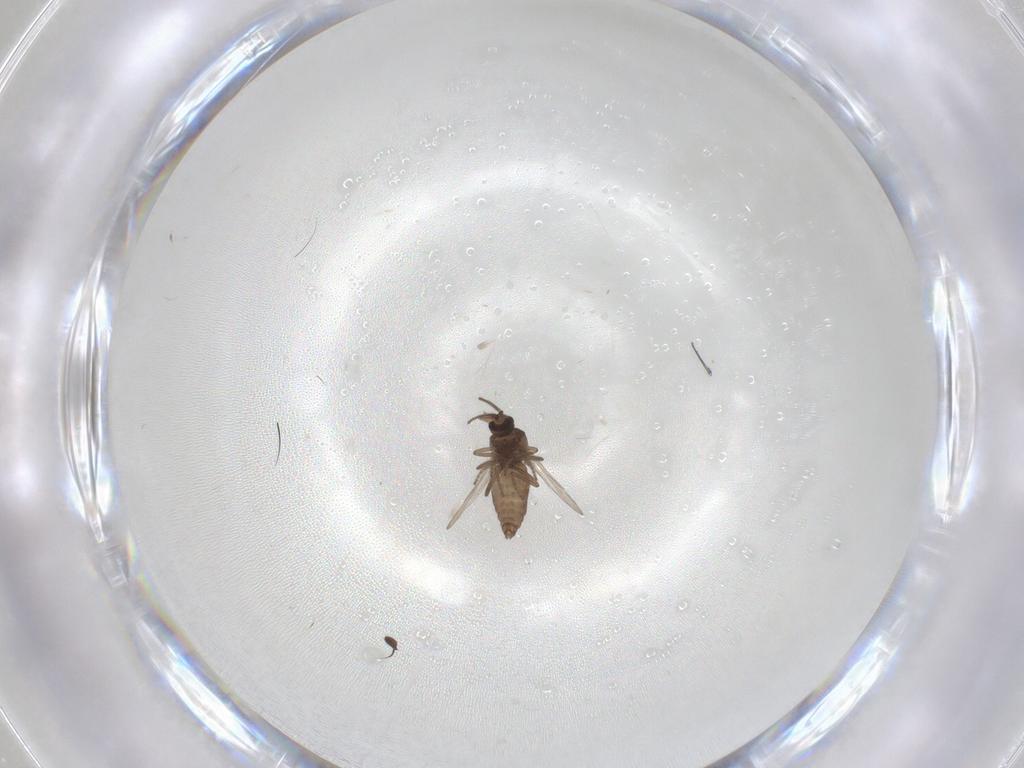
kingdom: Animalia
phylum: Arthropoda
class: Insecta
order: Diptera
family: Ceratopogonidae
